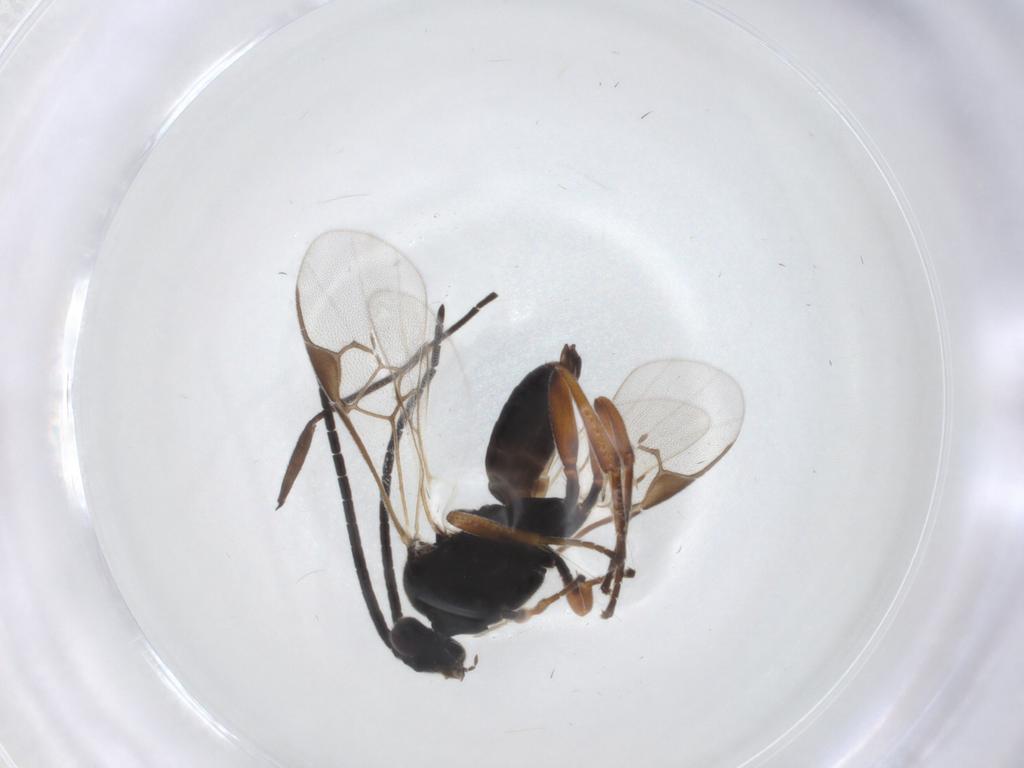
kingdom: Animalia
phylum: Arthropoda
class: Insecta
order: Hymenoptera
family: Braconidae
